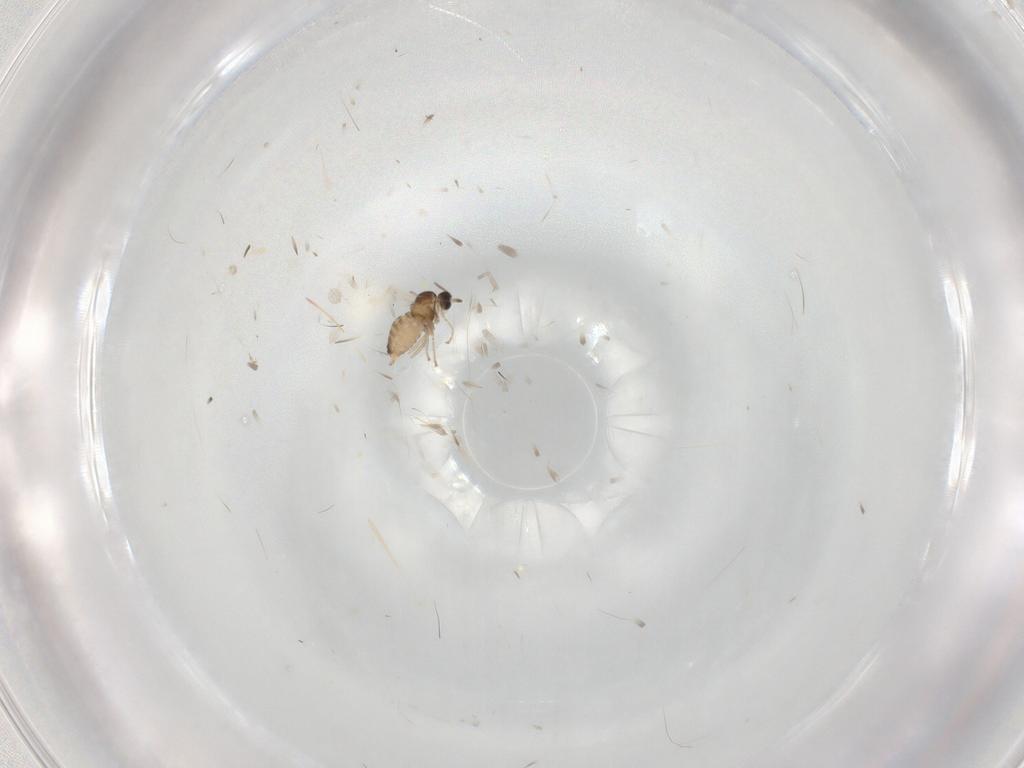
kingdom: Animalia
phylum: Arthropoda
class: Insecta
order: Diptera
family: Cecidomyiidae
